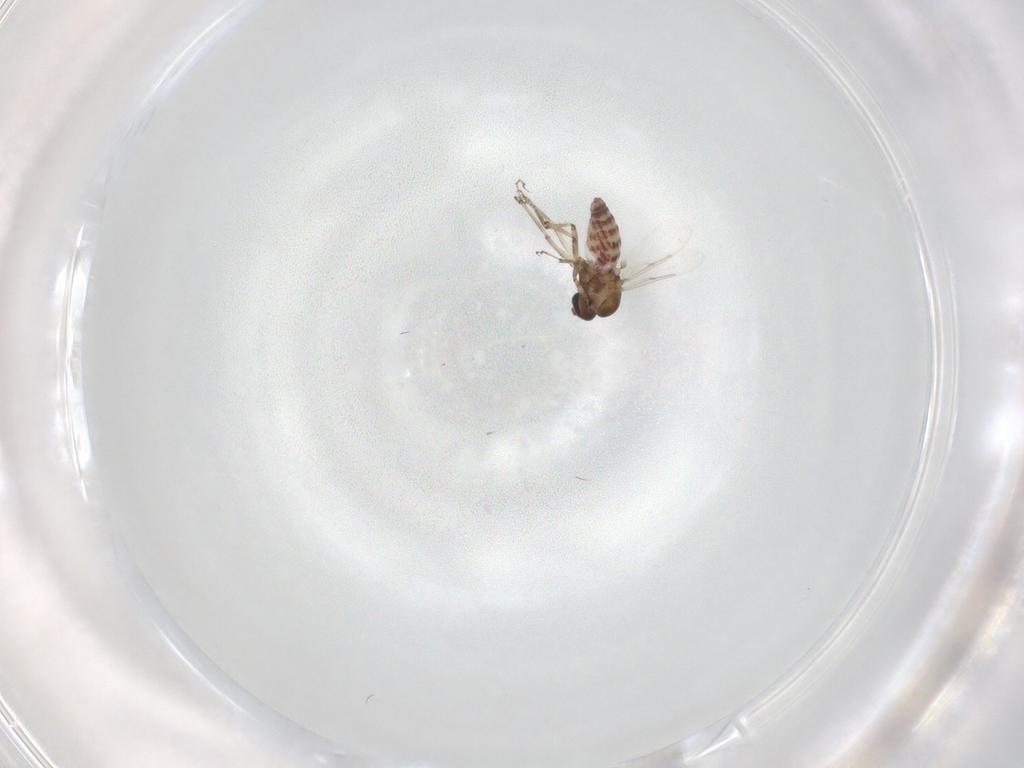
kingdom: Animalia
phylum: Arthropoda
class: Insecta
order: Diptera
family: Ceratopogonidae
